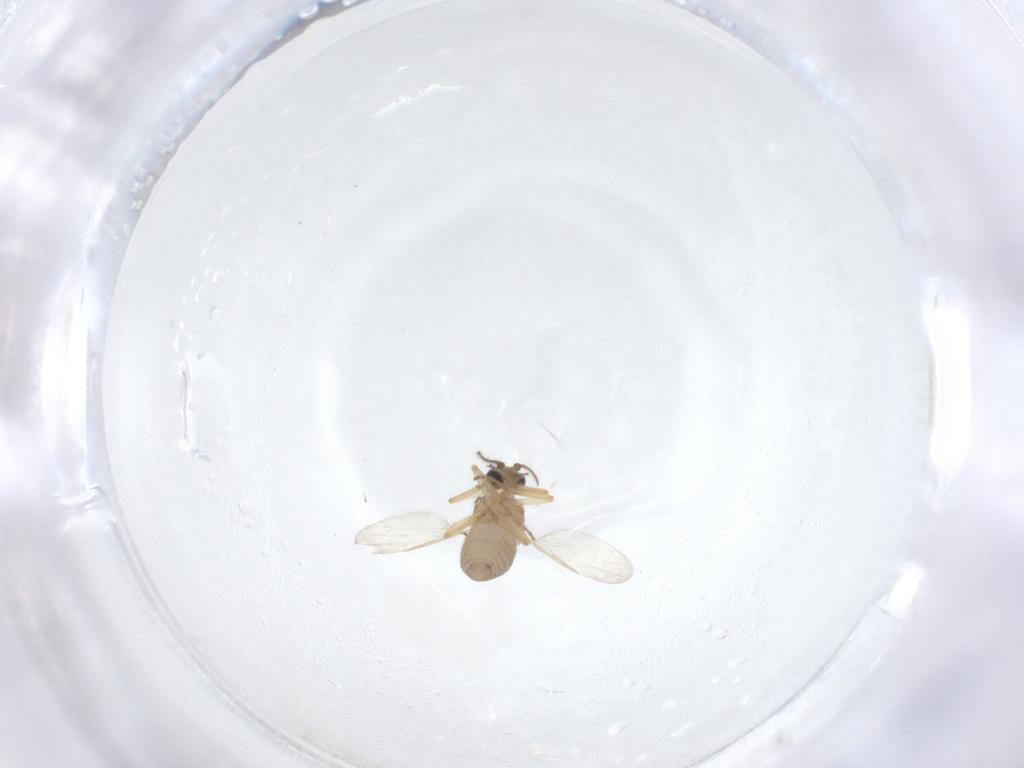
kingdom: Animalia
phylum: Arthropoda
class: Insecta
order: Diptera
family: Ceratopogonidae
